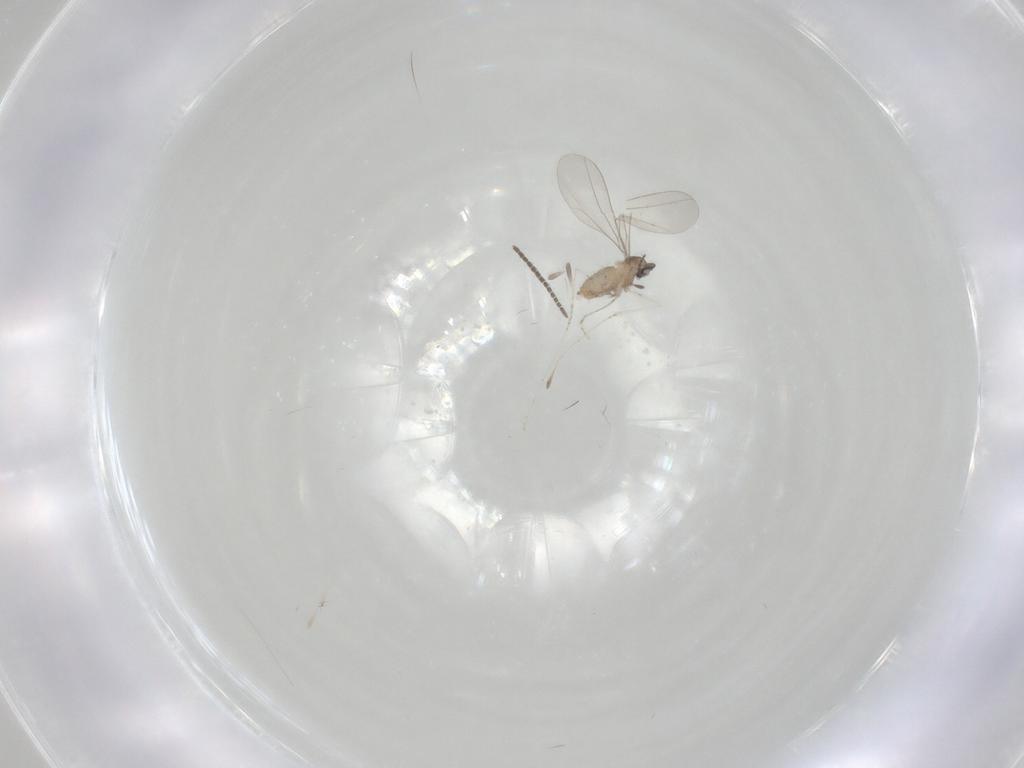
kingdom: Animalia
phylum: Arthropoda
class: Insecta
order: Diptera
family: Sciaridae
